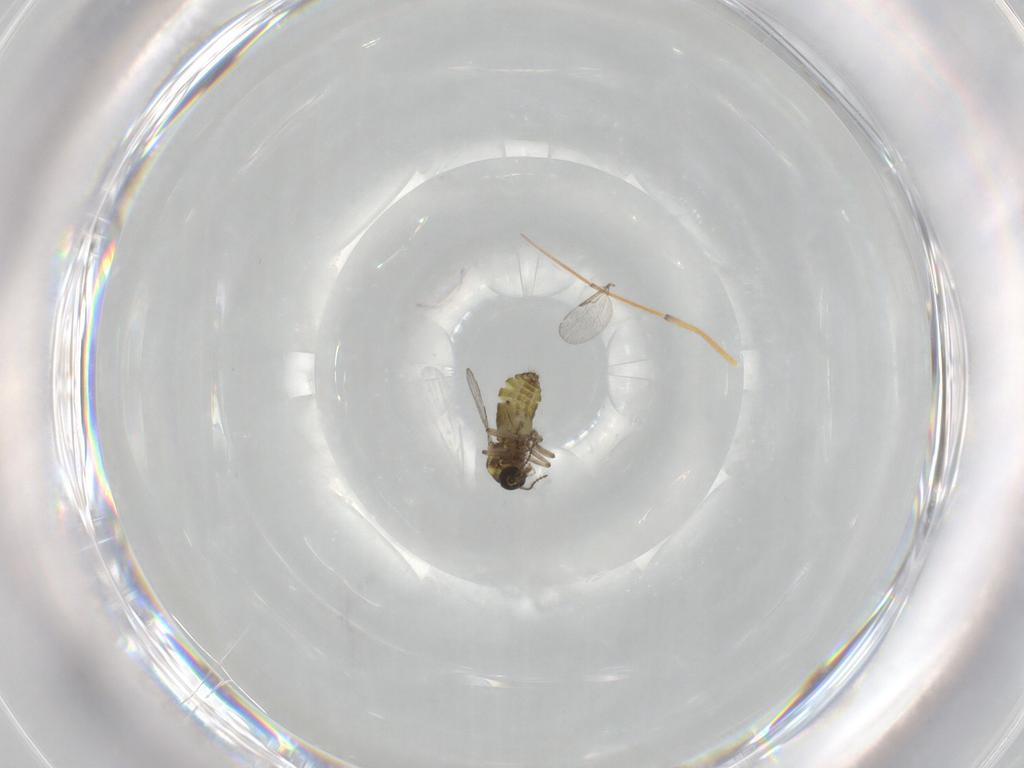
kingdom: Animalia
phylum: Arthropoda
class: Insecta
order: Diptera
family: Ceratopogonidae
